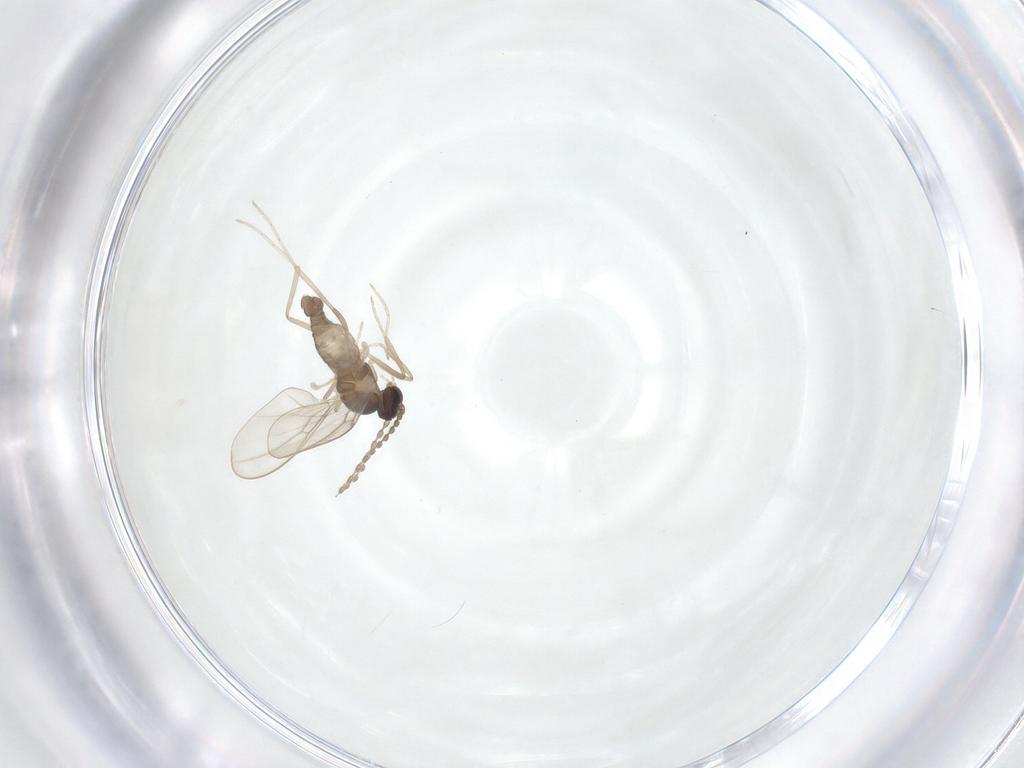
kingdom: Animalia
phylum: Arthropoda
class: Insecta
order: Diptera
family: Cecidomyiidae
